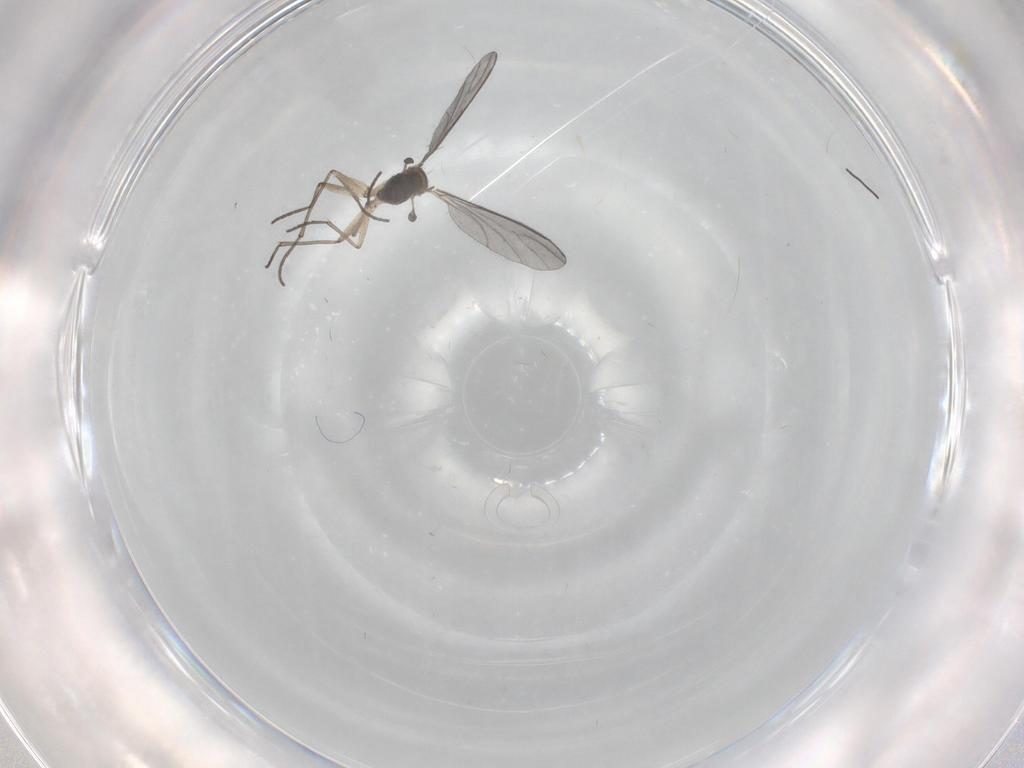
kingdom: Animalia
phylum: Arthropoda
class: Insecta
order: Diptera
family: Sciaridae
